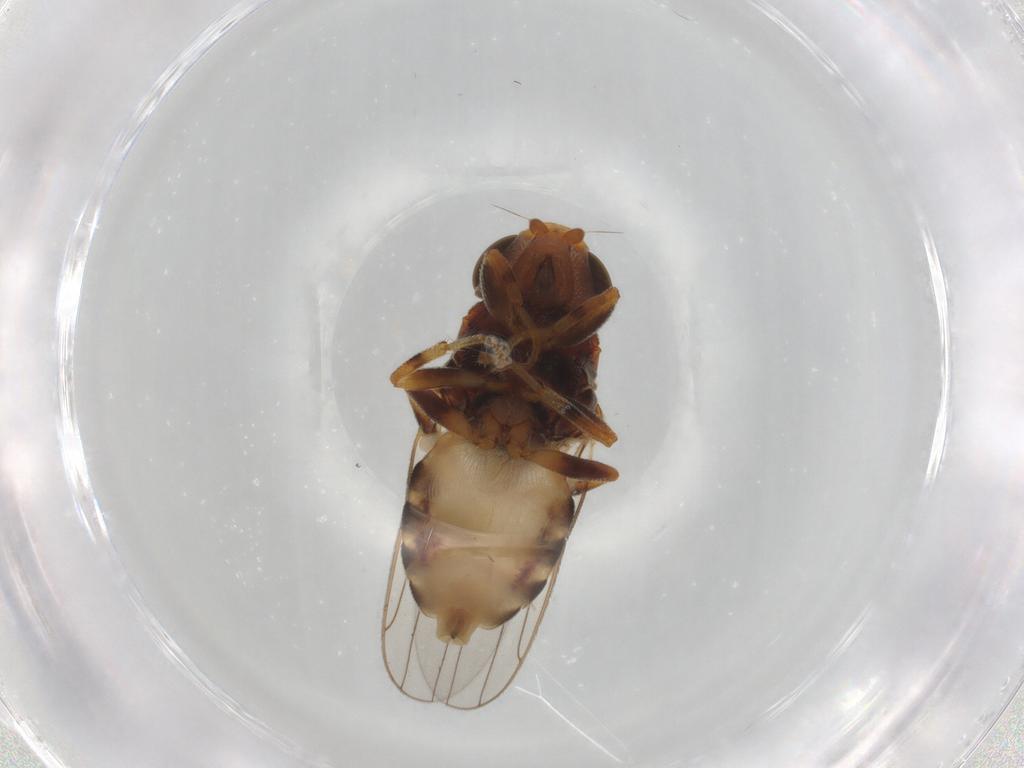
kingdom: Animalia
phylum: Arthropoda
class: Insecta
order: Diptera
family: Chloropidae
